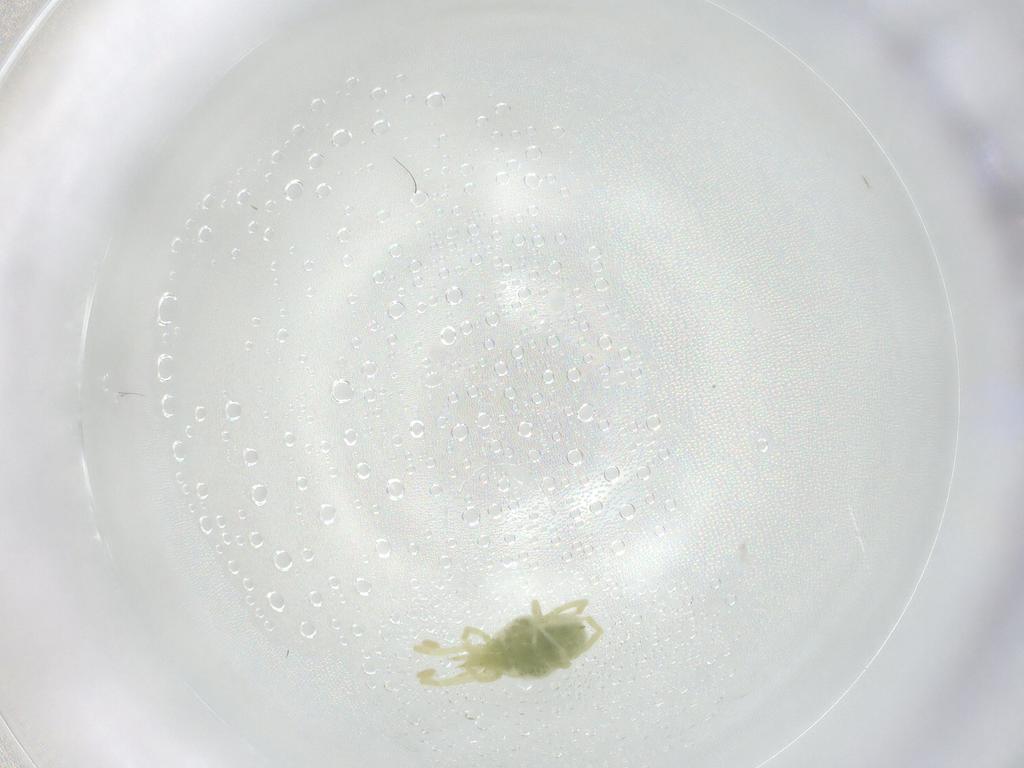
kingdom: Animalia
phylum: Arthropoda
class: Arachnida
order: Trombidiformes
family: Erythraeidae
